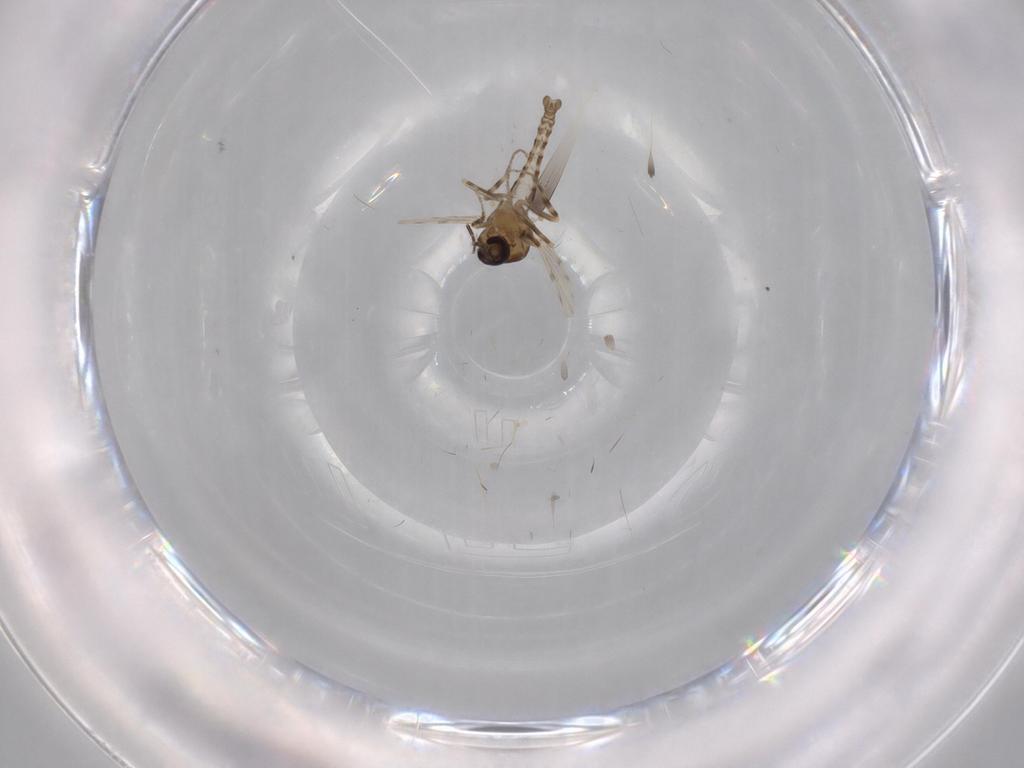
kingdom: Animalia
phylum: Arthropoda
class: Insecta
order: Diptera
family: Ceratopogonidae
